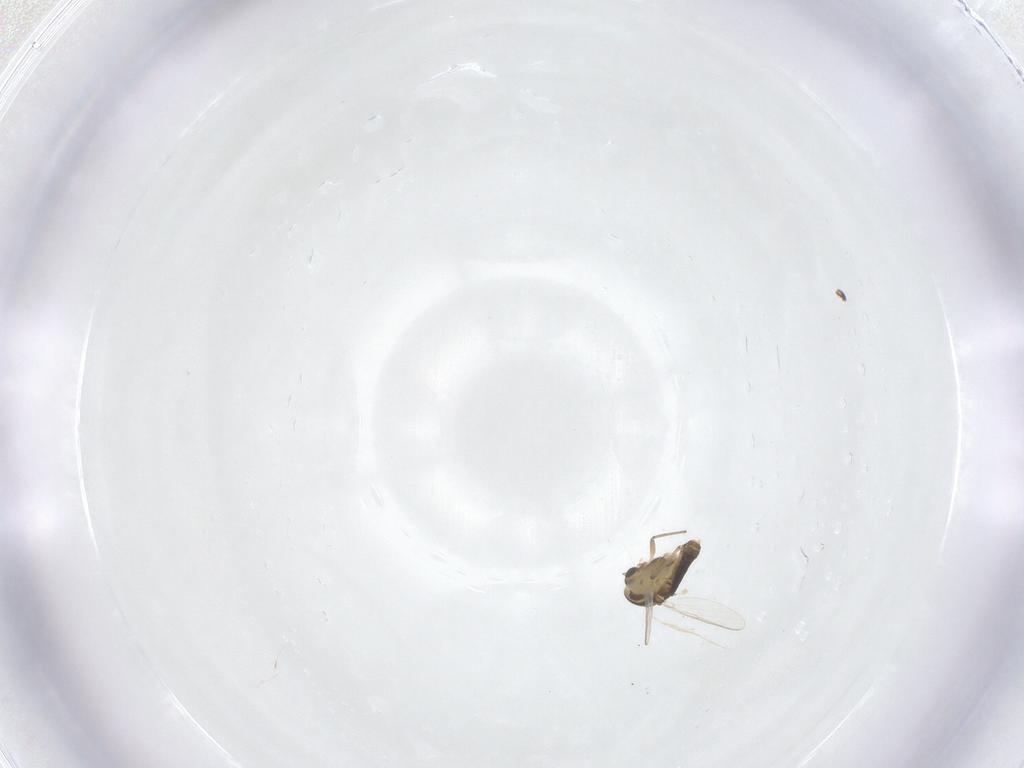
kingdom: Animalia
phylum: Arthropoda
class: Insecta
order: Diptera
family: Chironomidae
